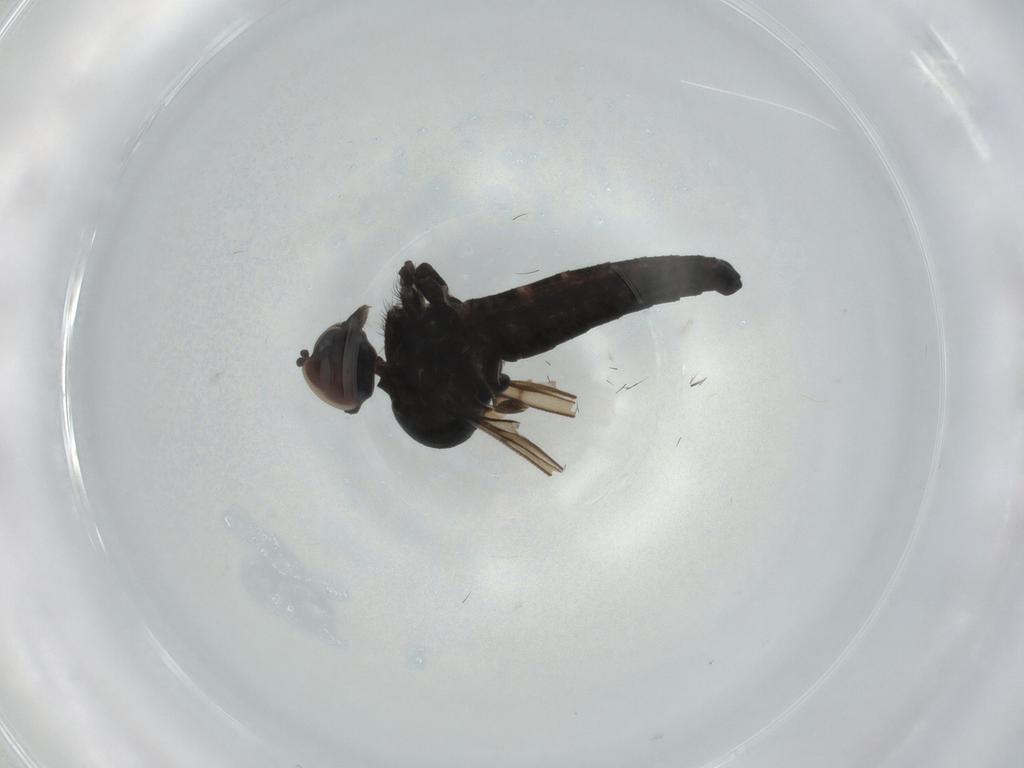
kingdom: Animalia
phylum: Arthropoda
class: Insecta
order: Diptera
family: Hybotidae
